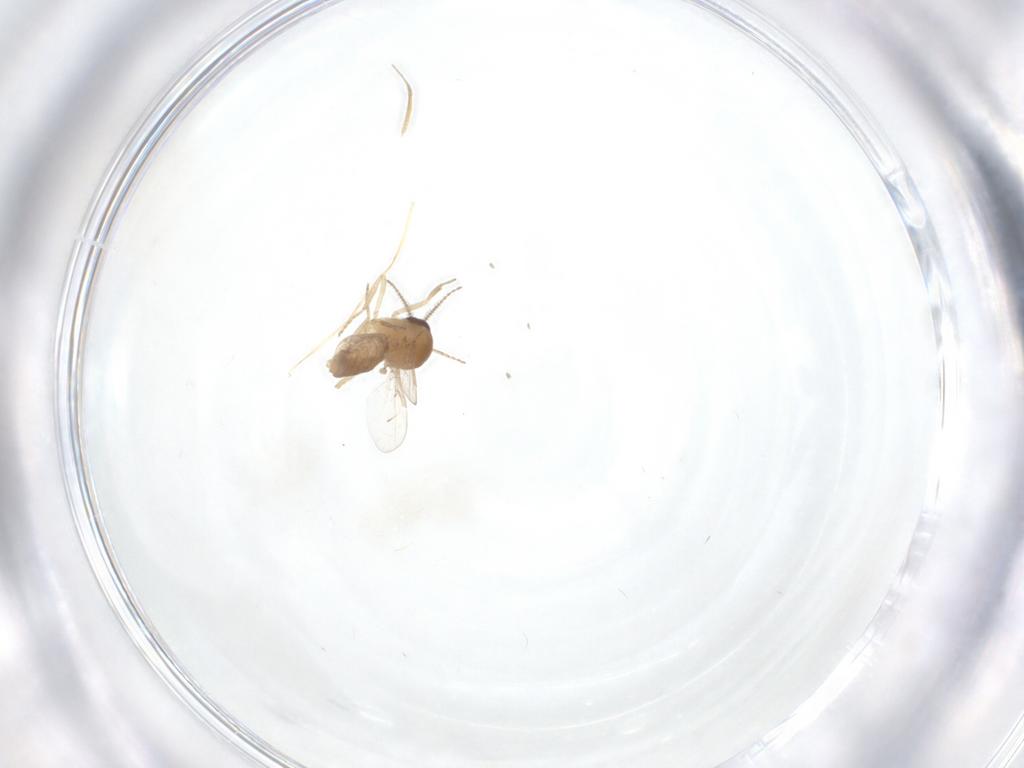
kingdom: Animalia
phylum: Arthropoda
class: Insecta
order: Diptera
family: Ceratopogonidae
